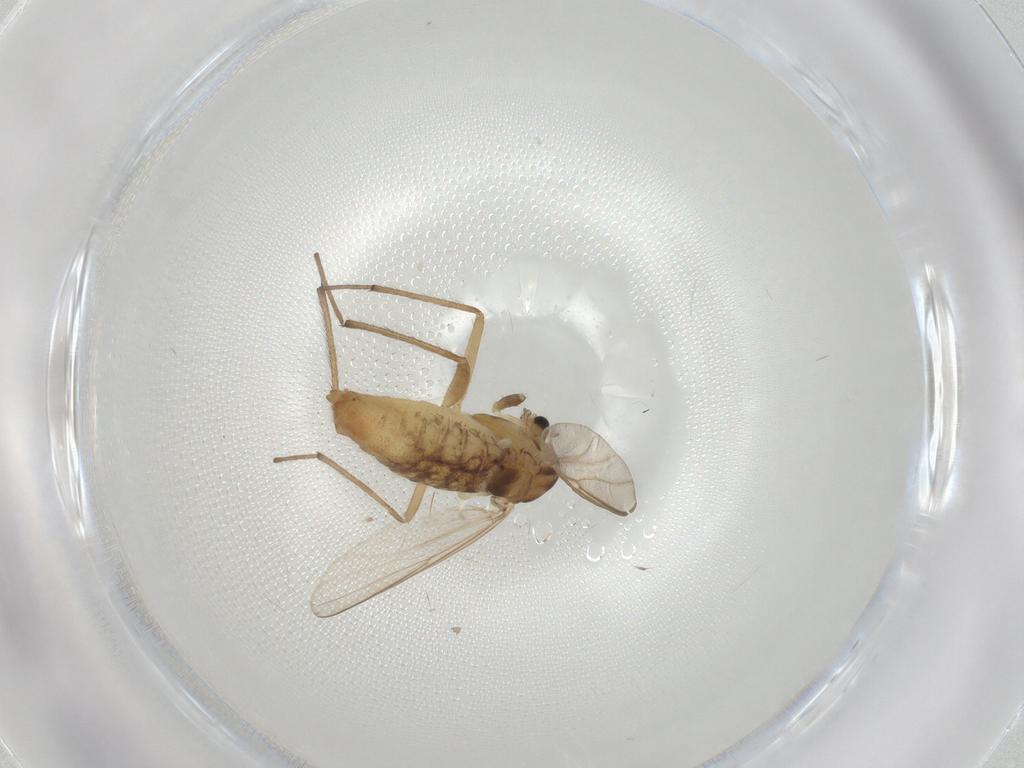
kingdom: Animalia
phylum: Arthropoda
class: Insecta
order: Diptera
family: Chironomidae
